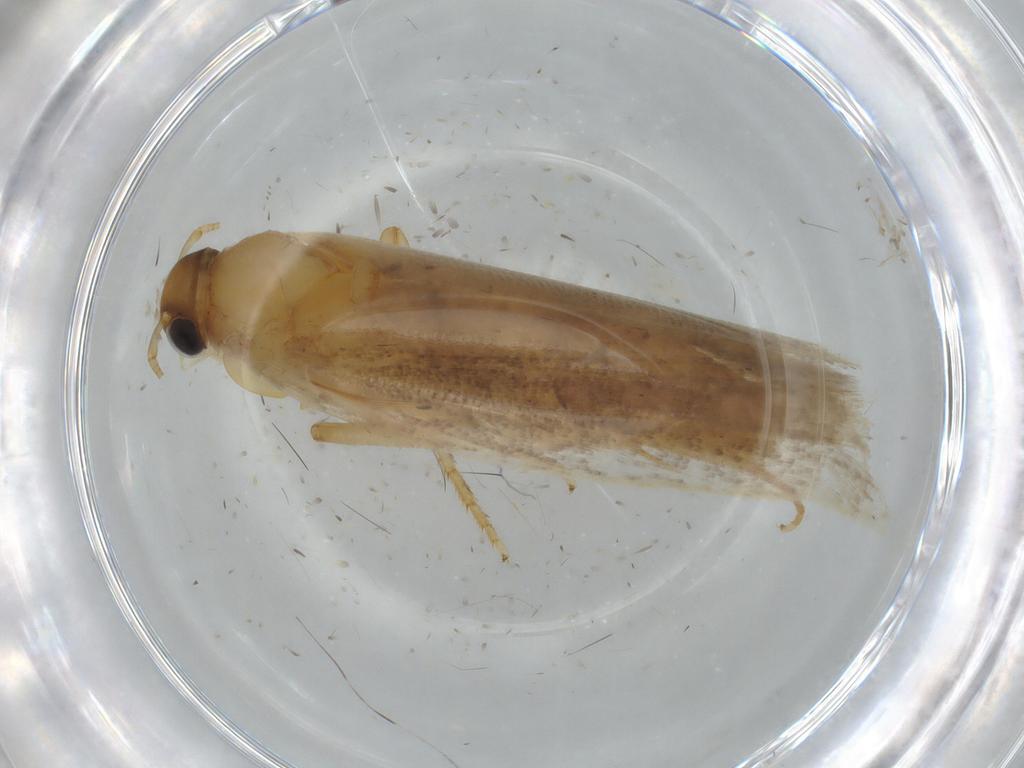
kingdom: Animalia
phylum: Arthropoda
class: Insecta
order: Lepidoptera
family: Gelechiidae
